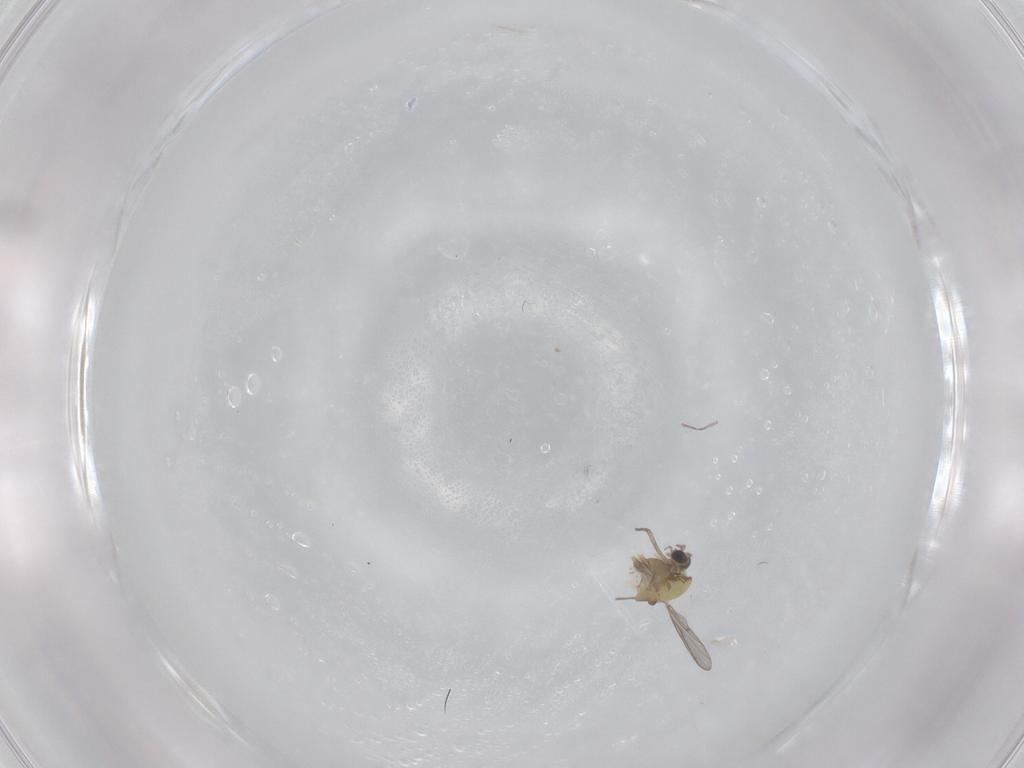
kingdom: Animalia
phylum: Arthropoda
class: Insecta
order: Diptera
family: Chironomidae
